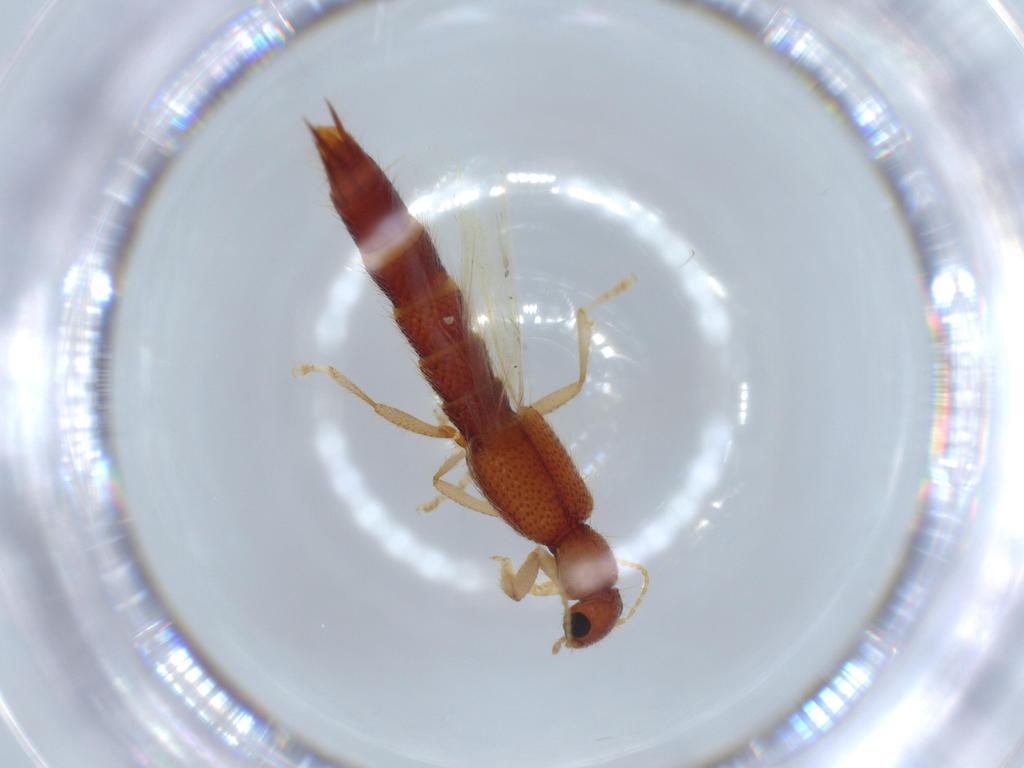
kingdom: Animalia
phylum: Arthropoda
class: Insecta
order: Coleoptera
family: Staphylinidae
